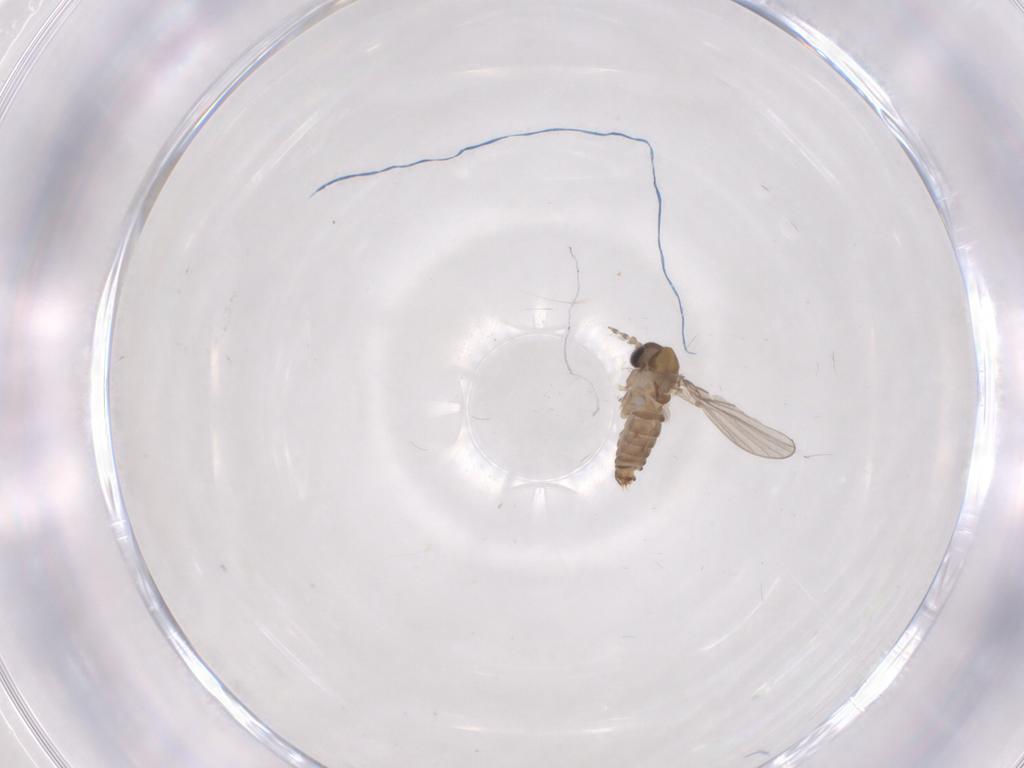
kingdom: Animalia
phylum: Arthropoda
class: Insecta
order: Diptera
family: Psychodidae
